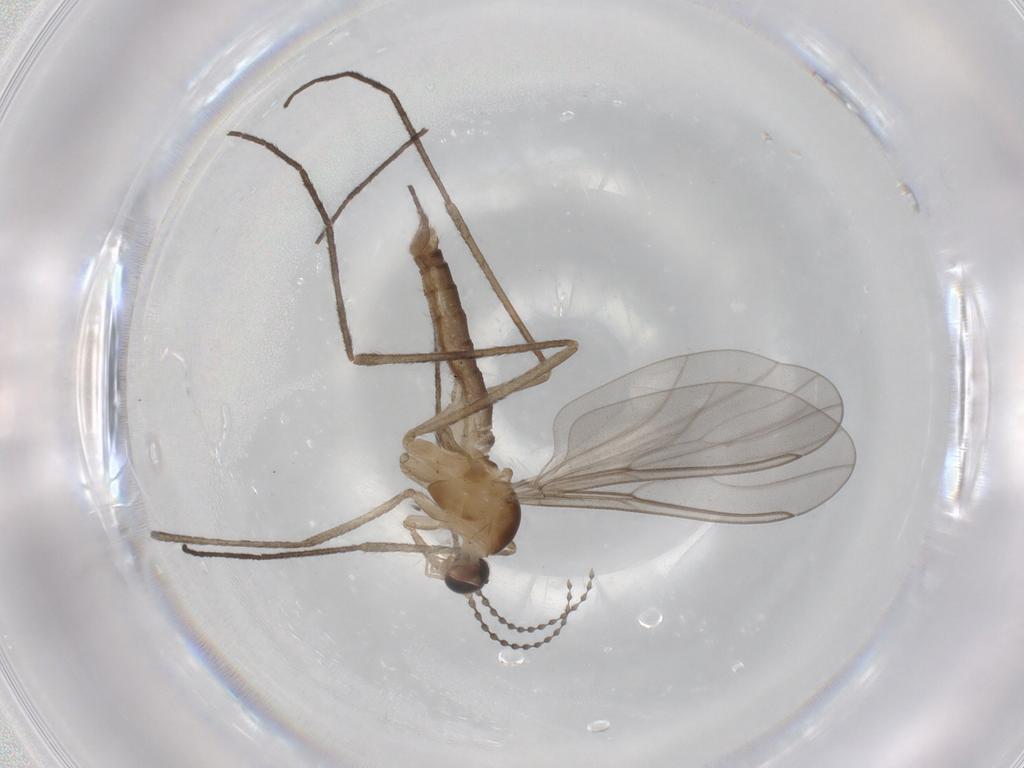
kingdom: Animalia
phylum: Arthropoda
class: Insecta
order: Diptera
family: Cecidomyiidae
